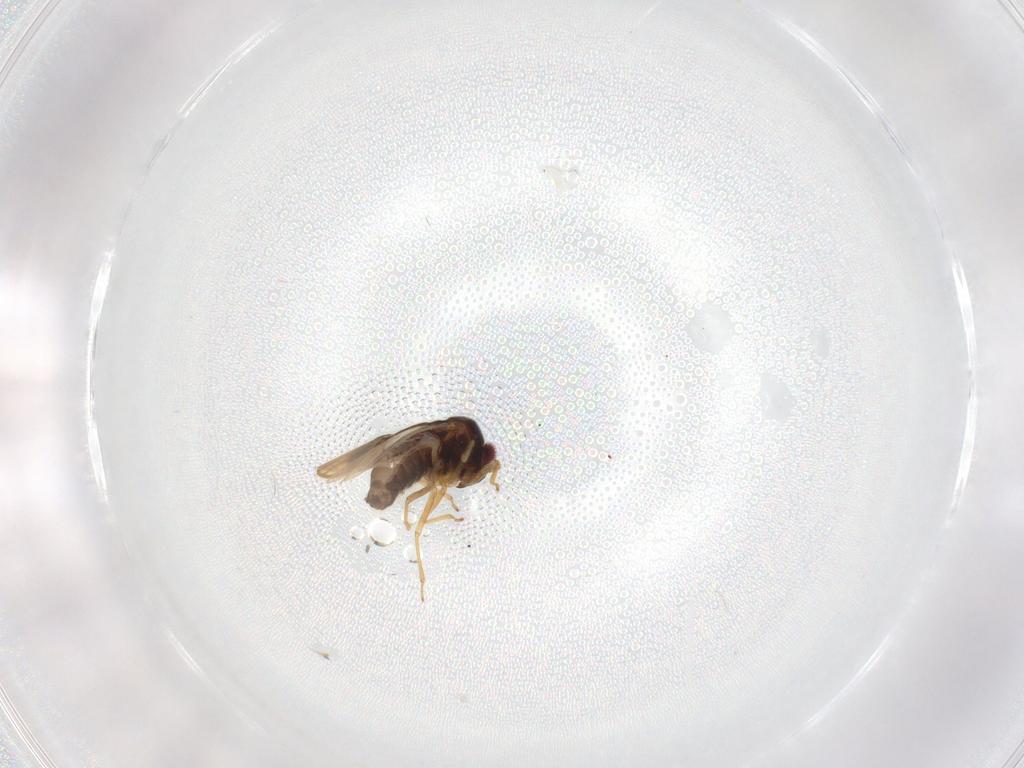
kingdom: Animalia
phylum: Arthropoda
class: Insecta
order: Hemiptera
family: Schizopteridae
